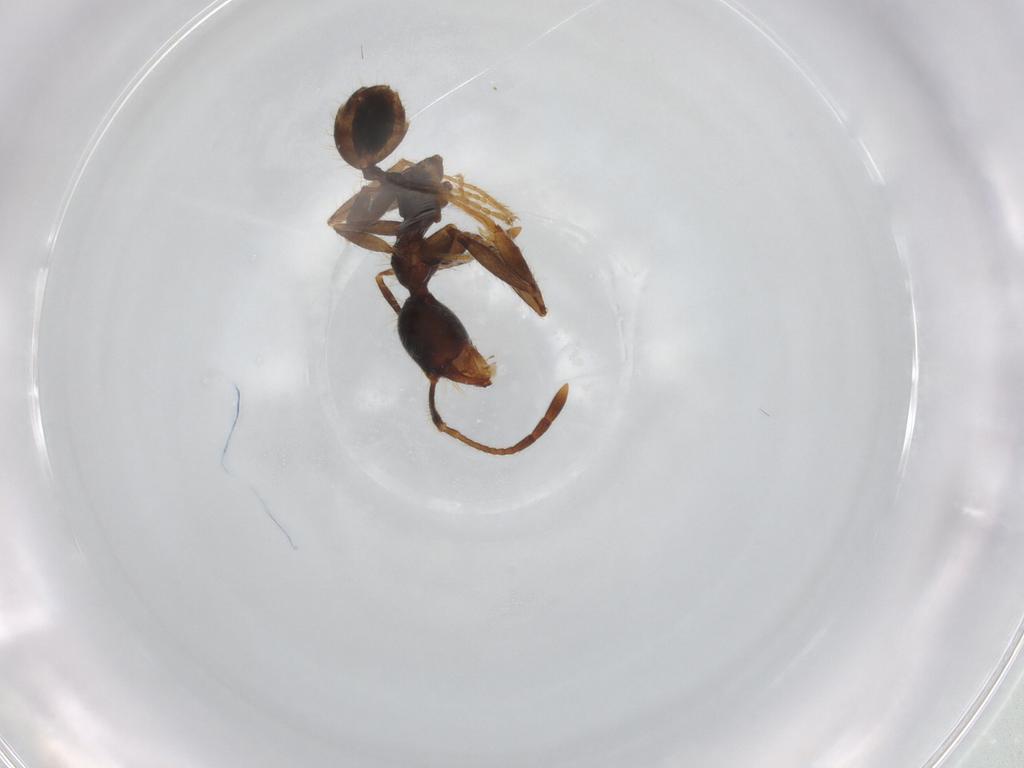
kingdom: Animalia
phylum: Arthropoda
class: Insecta
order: Hymenoptera
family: Formicidae
